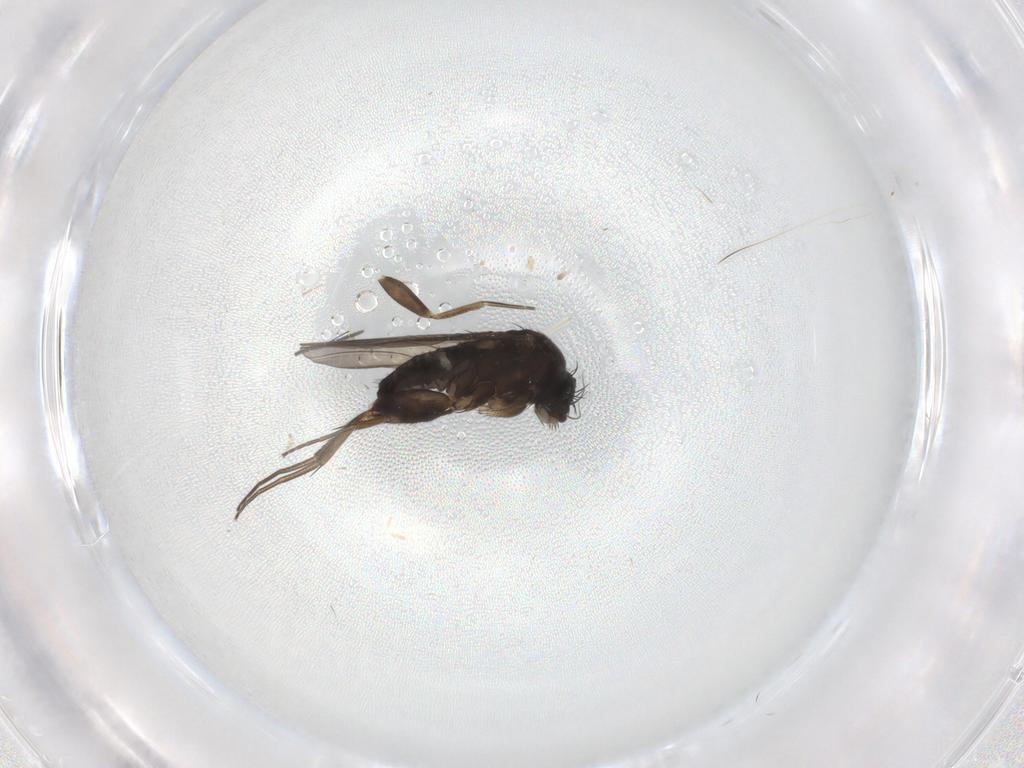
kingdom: Animalia
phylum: Arthropoda
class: Insecta
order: Diptera
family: Phoridae
